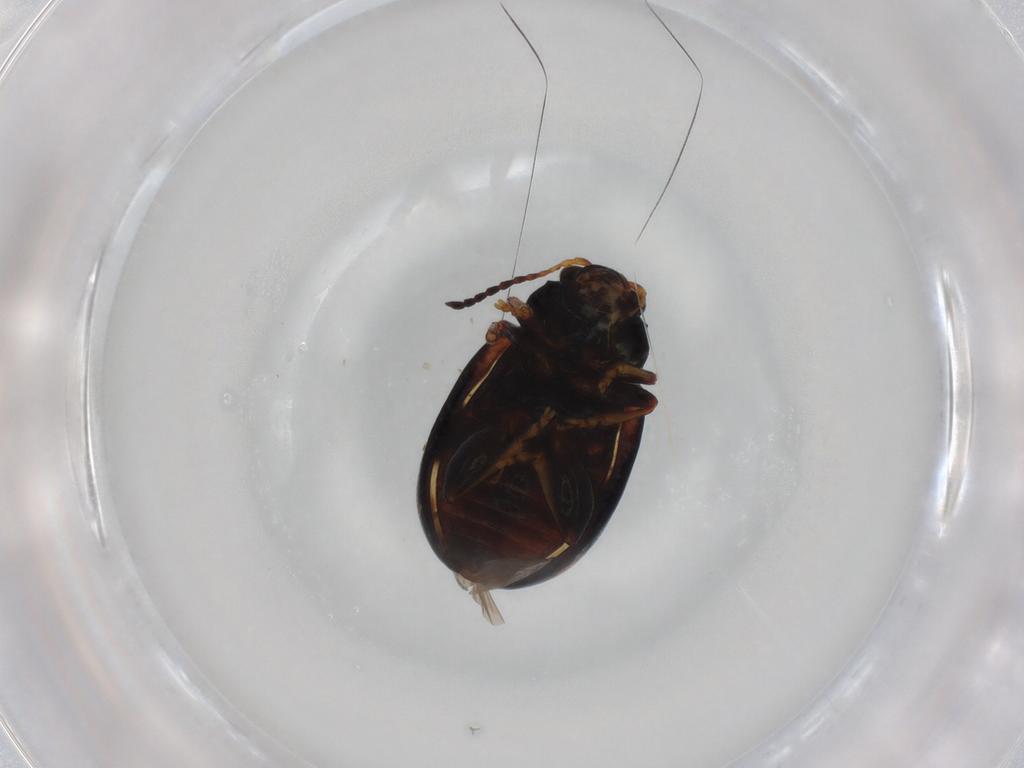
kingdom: Animalia
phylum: Arthropoda
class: Insecta
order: Coleoptera
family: Chrysomelidae
